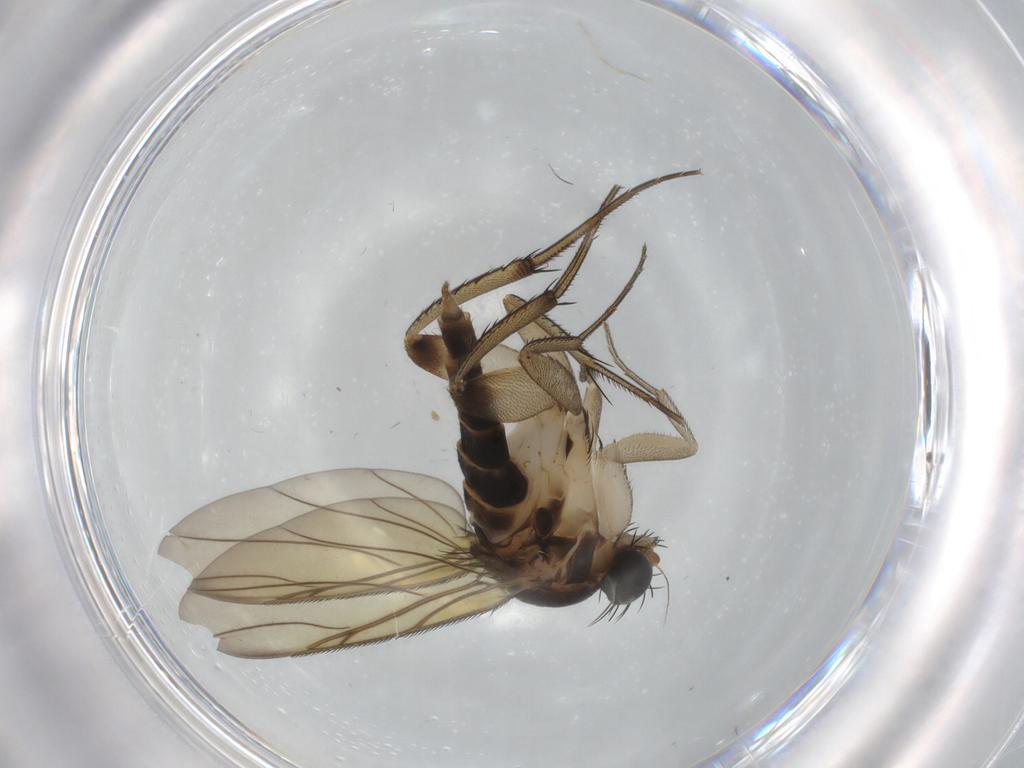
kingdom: Animalia
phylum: Arthropoda
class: Insecta
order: Diptera
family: Phoridae
